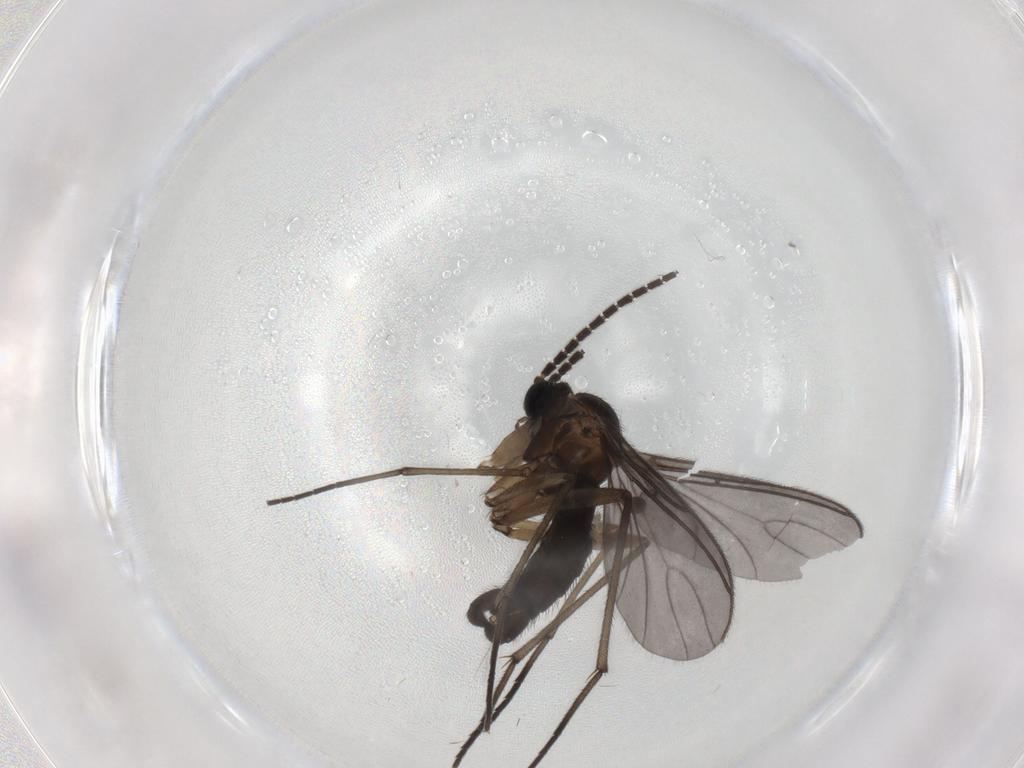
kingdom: Animalia
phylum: Arthropoda
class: Insecta
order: Diptera
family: Sciaridae
